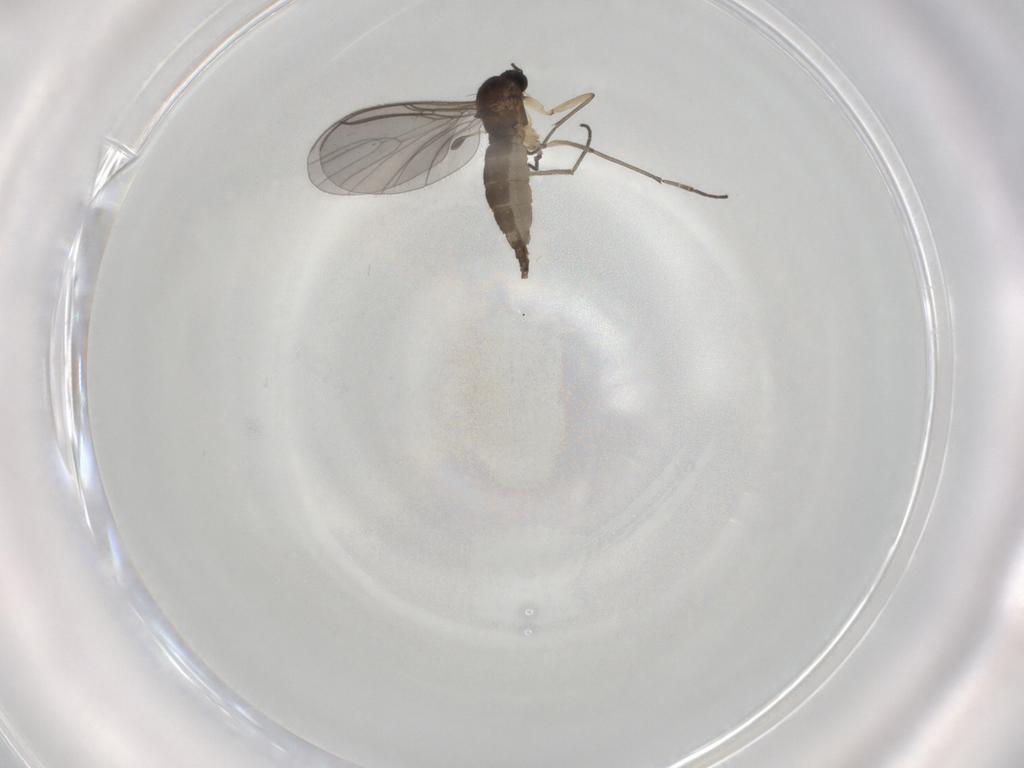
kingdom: Animalia
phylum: Arthropoda
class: Insecta
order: Diptera
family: Sciaridae
